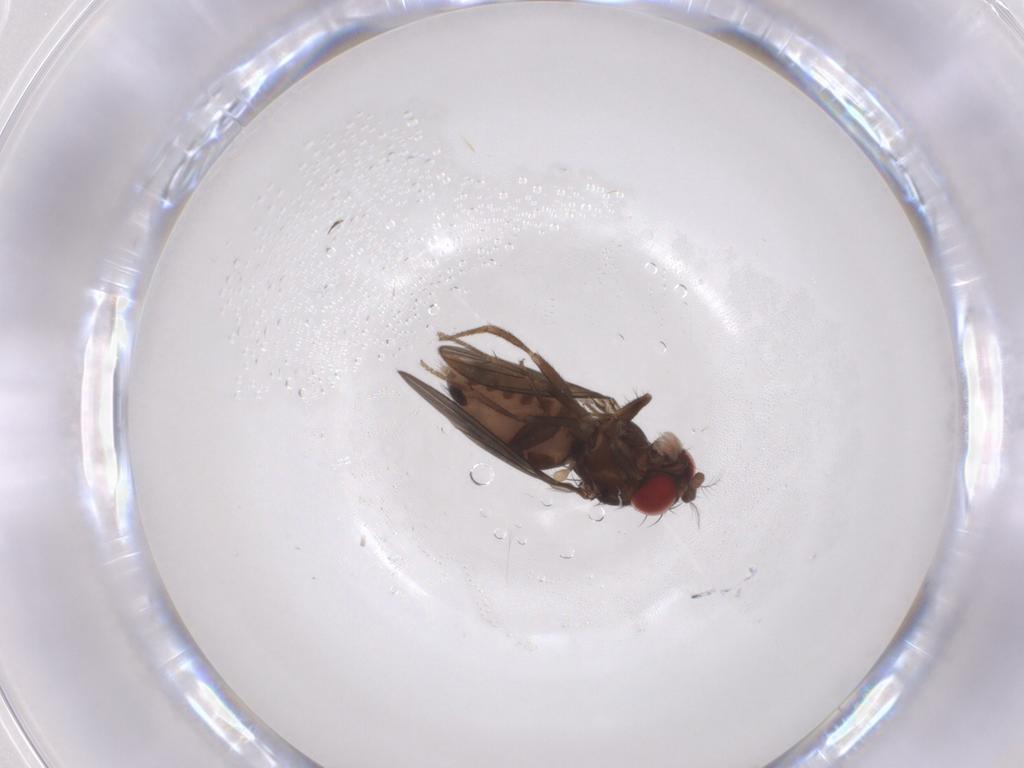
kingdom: Animalia
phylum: Arthropoda
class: Insecta
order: Diptera
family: Drosophilidae
